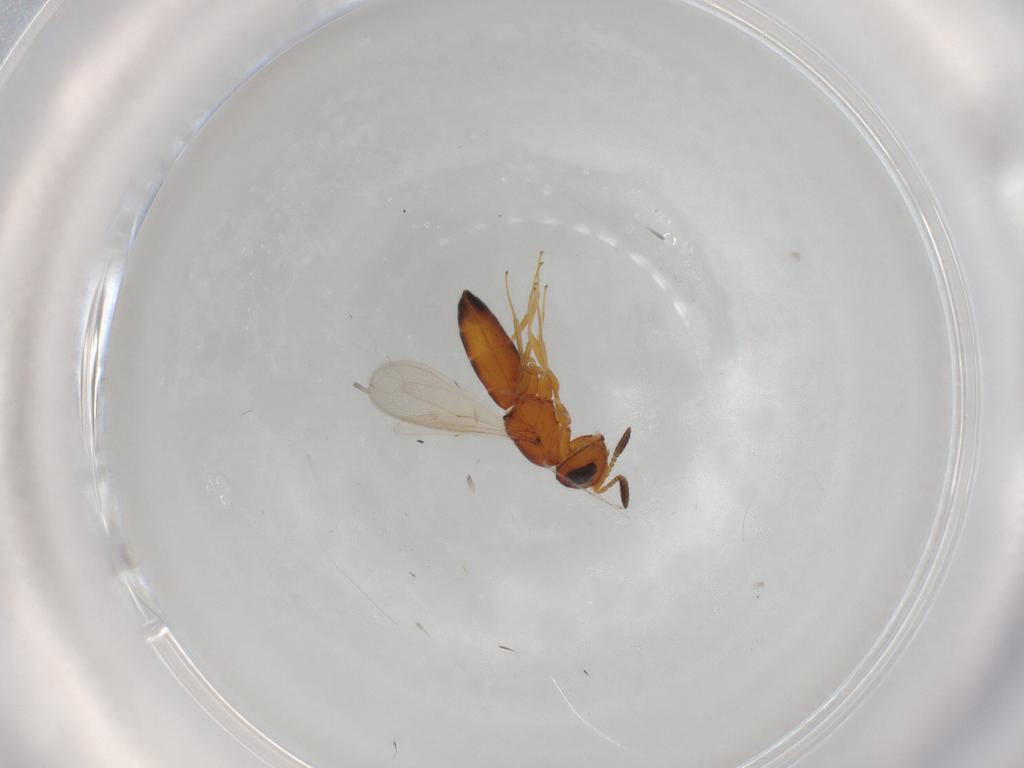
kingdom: Animalia
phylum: Arthropoda
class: Insecta
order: Hymenoptera
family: Scelionidae
